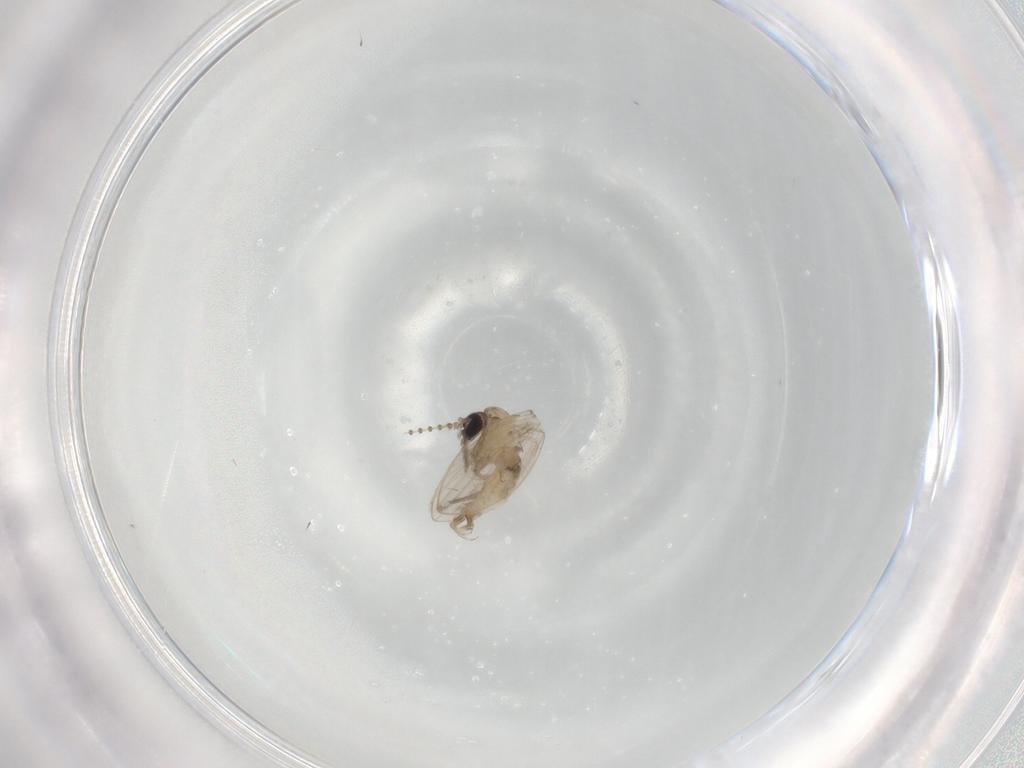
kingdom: Animalia
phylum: Arthropoda
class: Insecta
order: Diptera
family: Psychodidae
